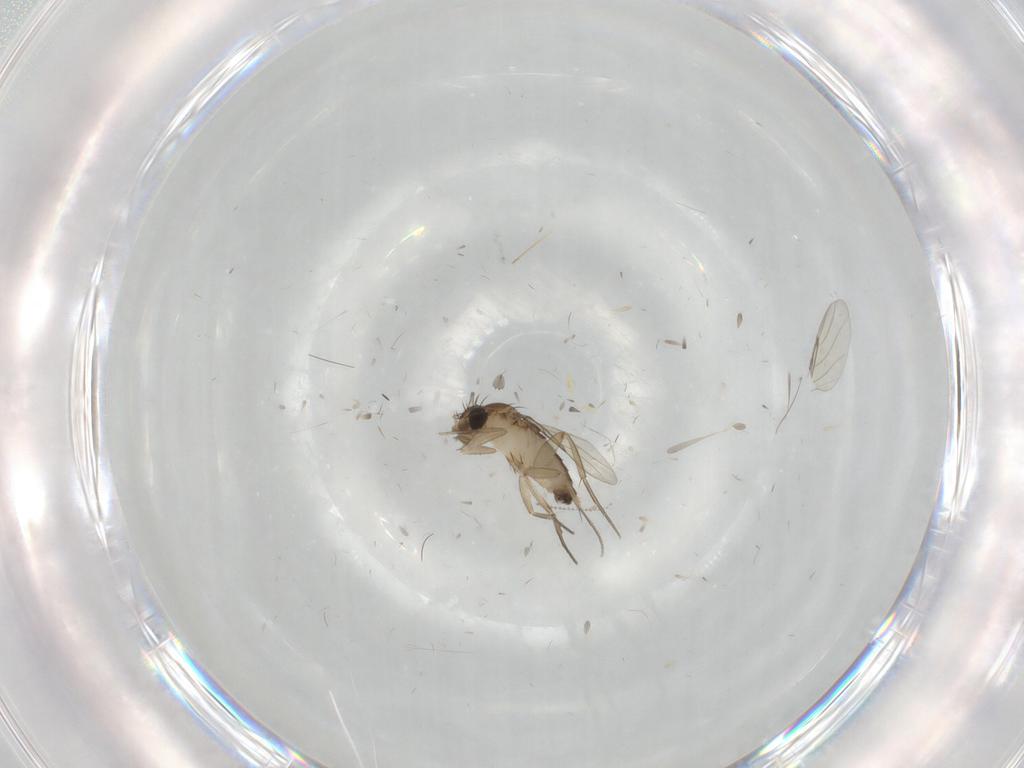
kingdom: Animalia
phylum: Arthropoda
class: Insecta
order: Diptera
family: Phoridae
